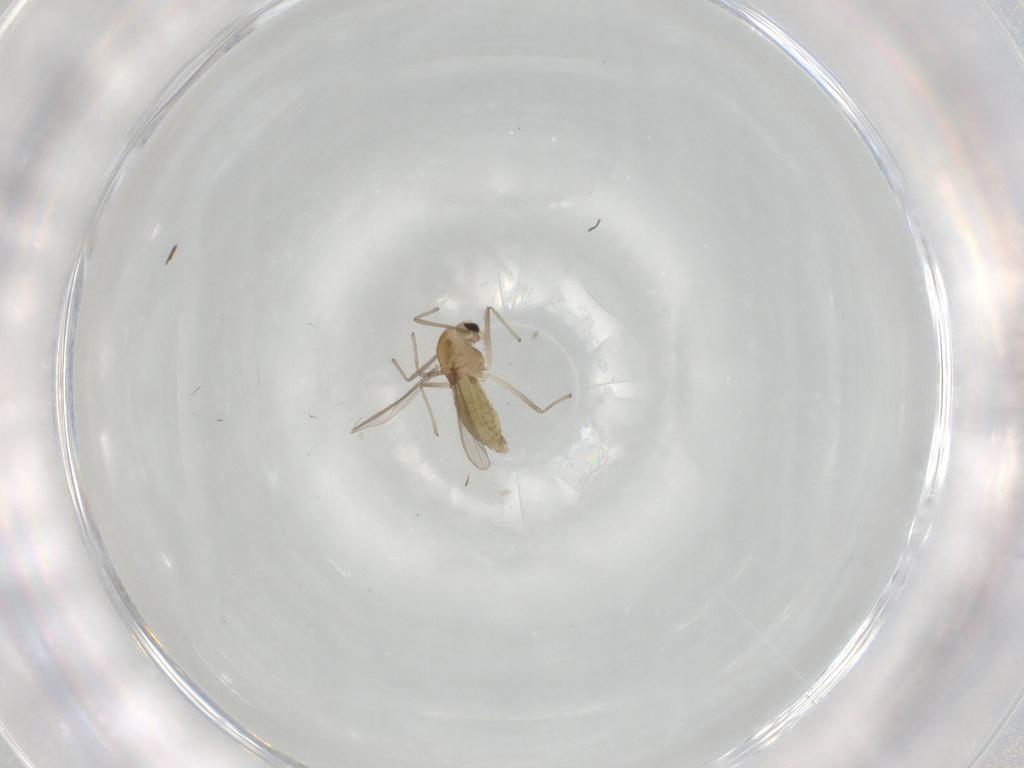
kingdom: Animalia
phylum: Arthropoda
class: Insecta
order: Diptera
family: Chironomidae
